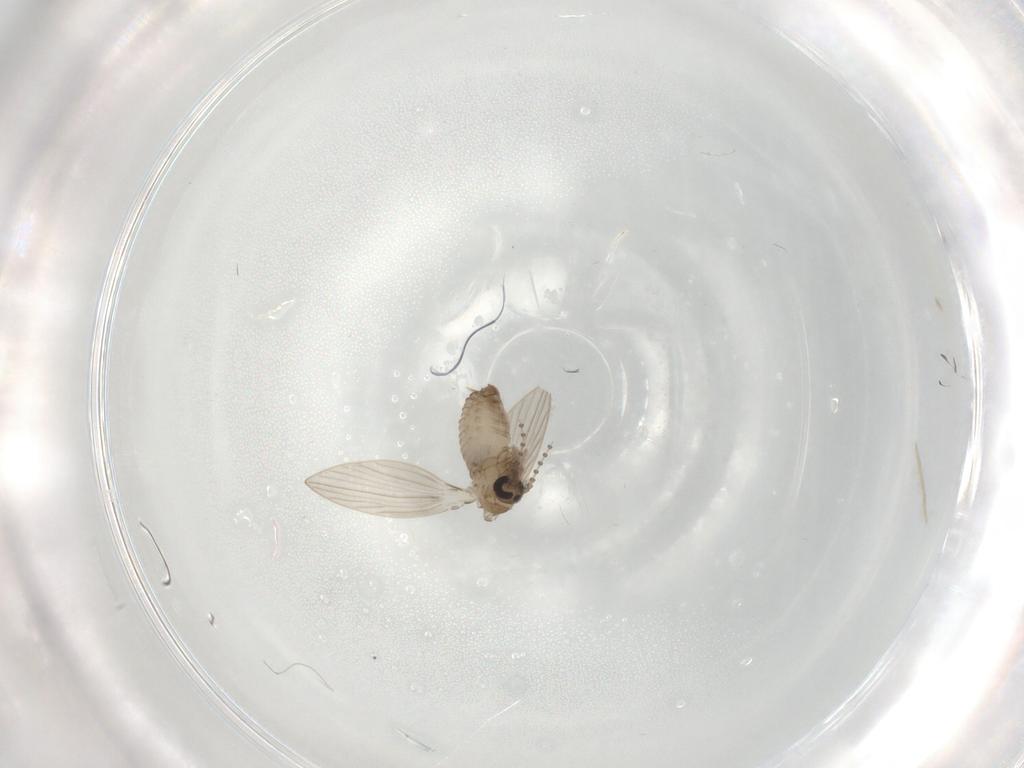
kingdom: Animalia
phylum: Arthropoda
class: Insecta
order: Diptera
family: Psychodidae
